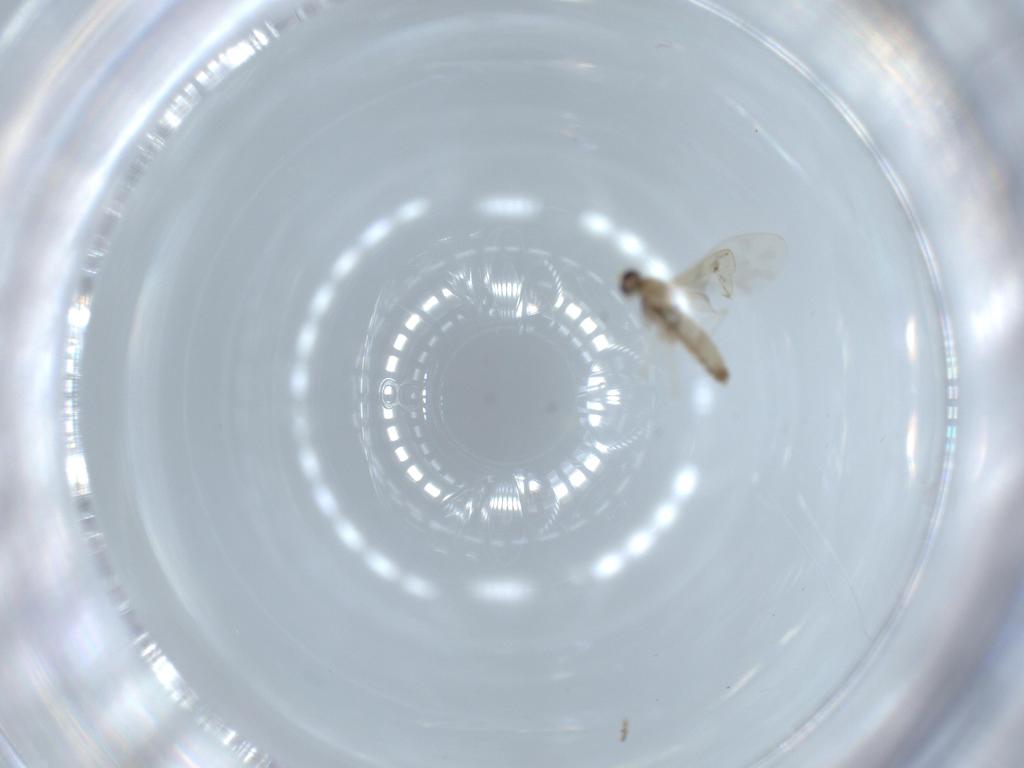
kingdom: Animalia
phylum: Arthropoda
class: Insecta
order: Diptera
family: Cecidomyiidae
